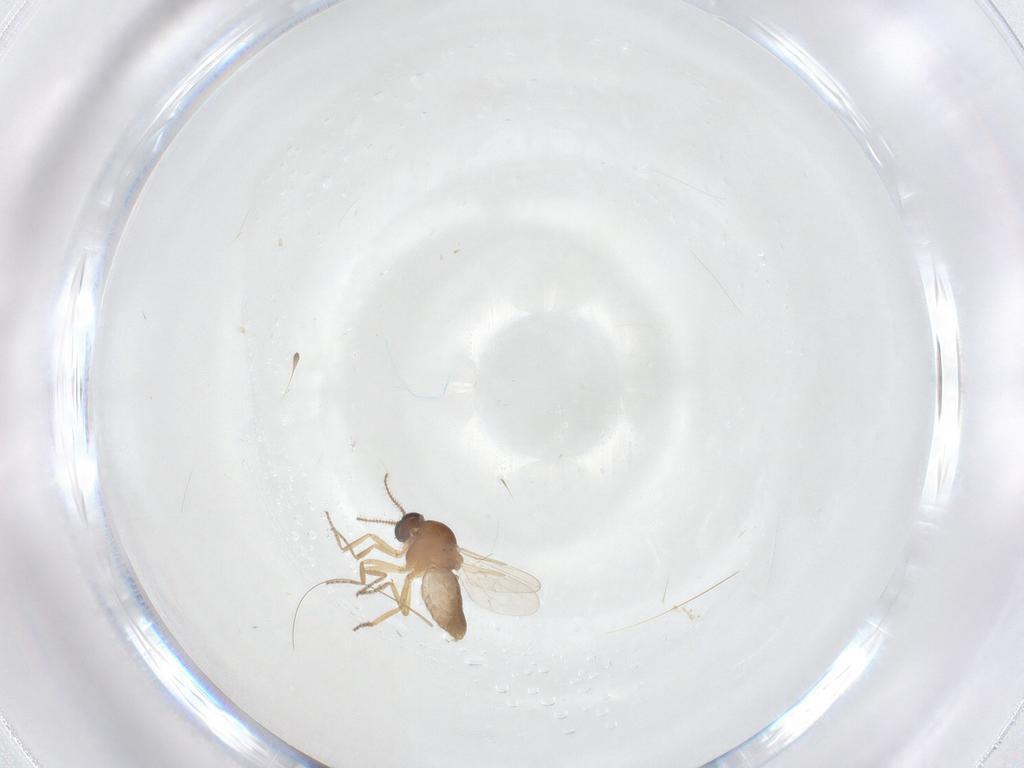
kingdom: Animalia
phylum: Arthropoda
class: Insecta
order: Diptera
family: Ceratopogonidae
